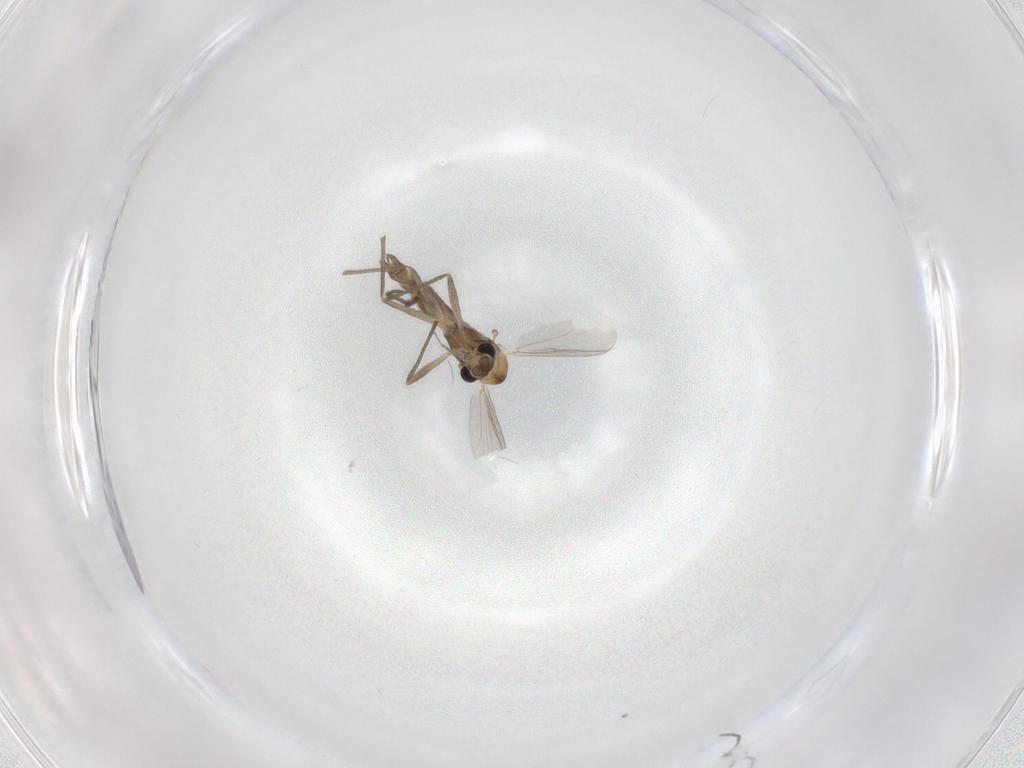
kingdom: Animalia
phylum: Arthropoda
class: Insecta
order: Diptera
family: Chironomidae
